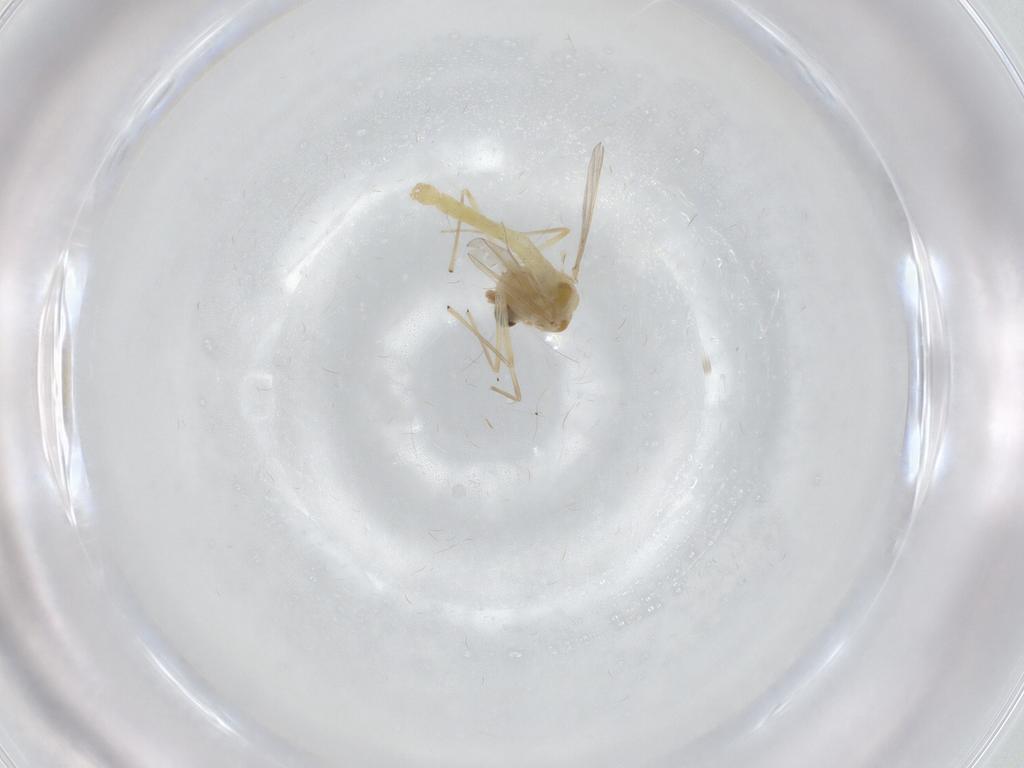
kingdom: Animalia
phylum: Arthropoda
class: Insecta
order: Diptera
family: Chironomidae
